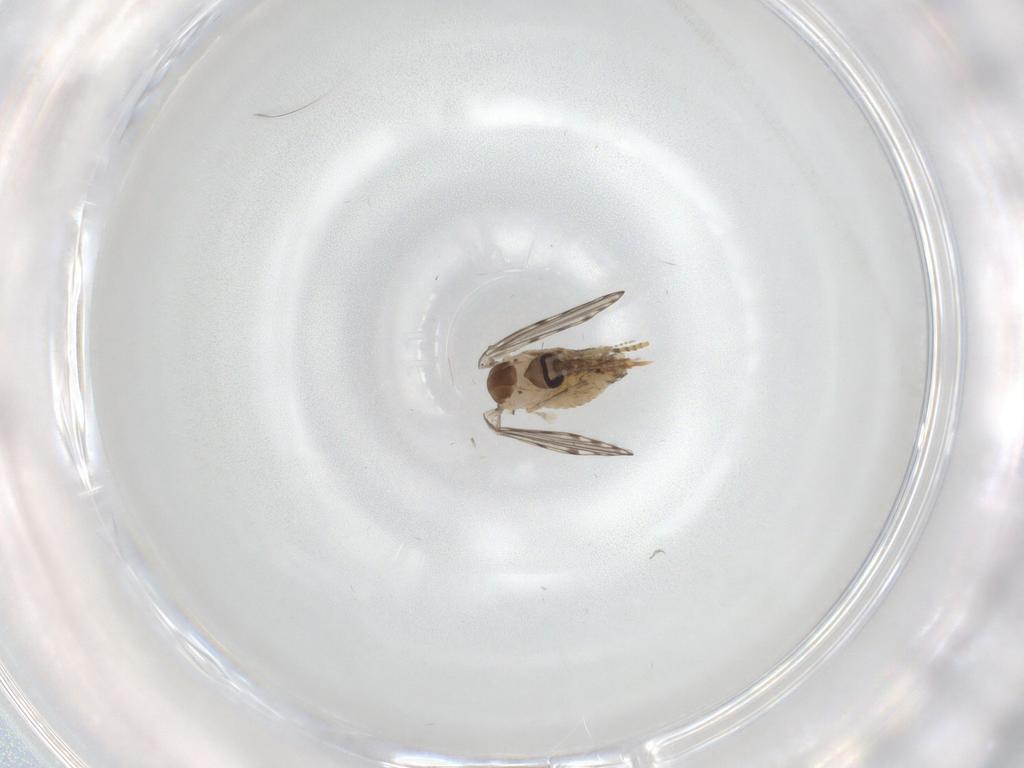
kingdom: Animalia
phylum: Arthropoda
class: Insecta
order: Diptera
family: Psychodidae
